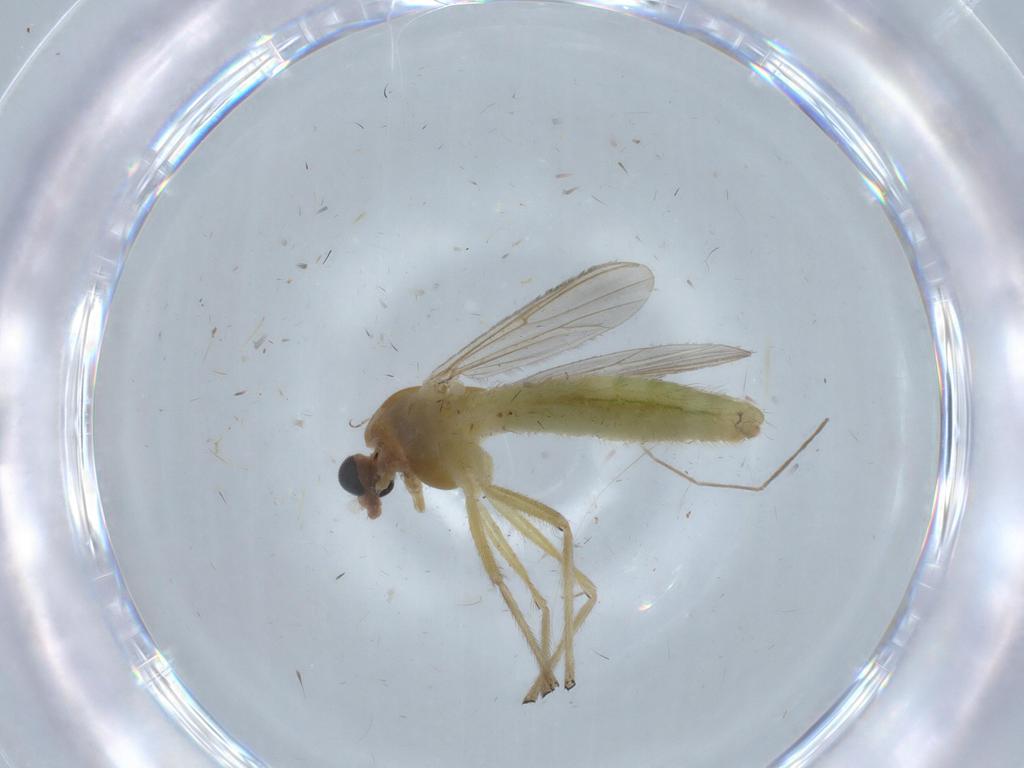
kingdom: Animalia
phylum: Arthropoda
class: Insecta
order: Diptera
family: Chironomidae
